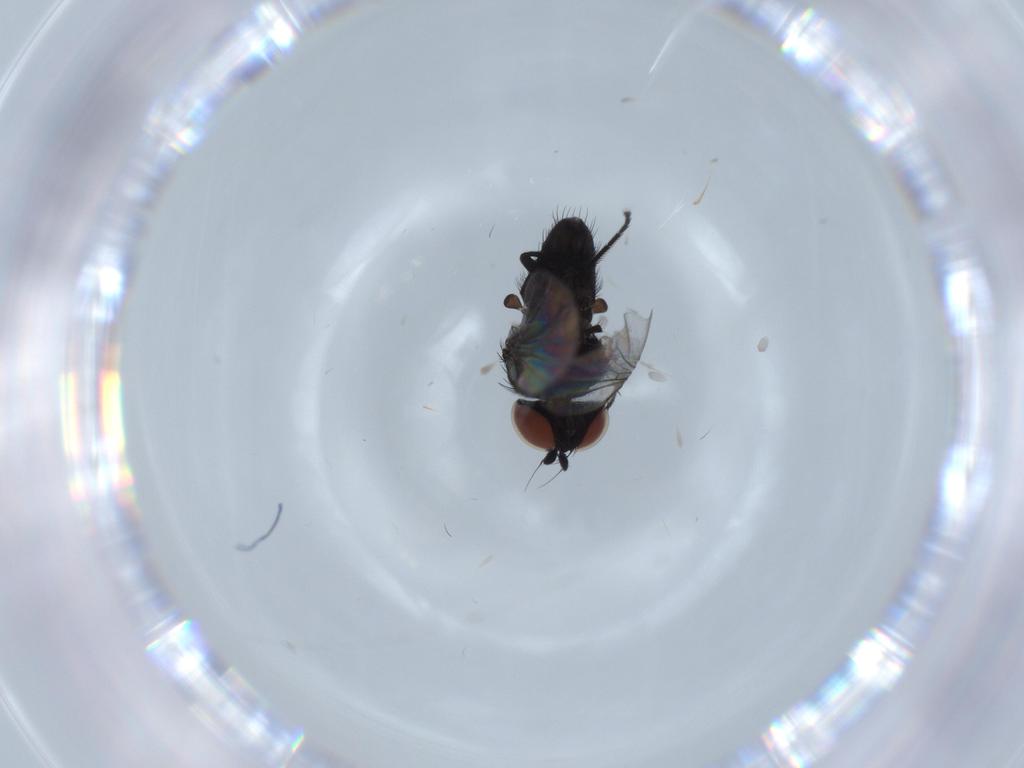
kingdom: Animalia
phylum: Arthropoda
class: Insecta
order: Diptera
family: Milichiidae
